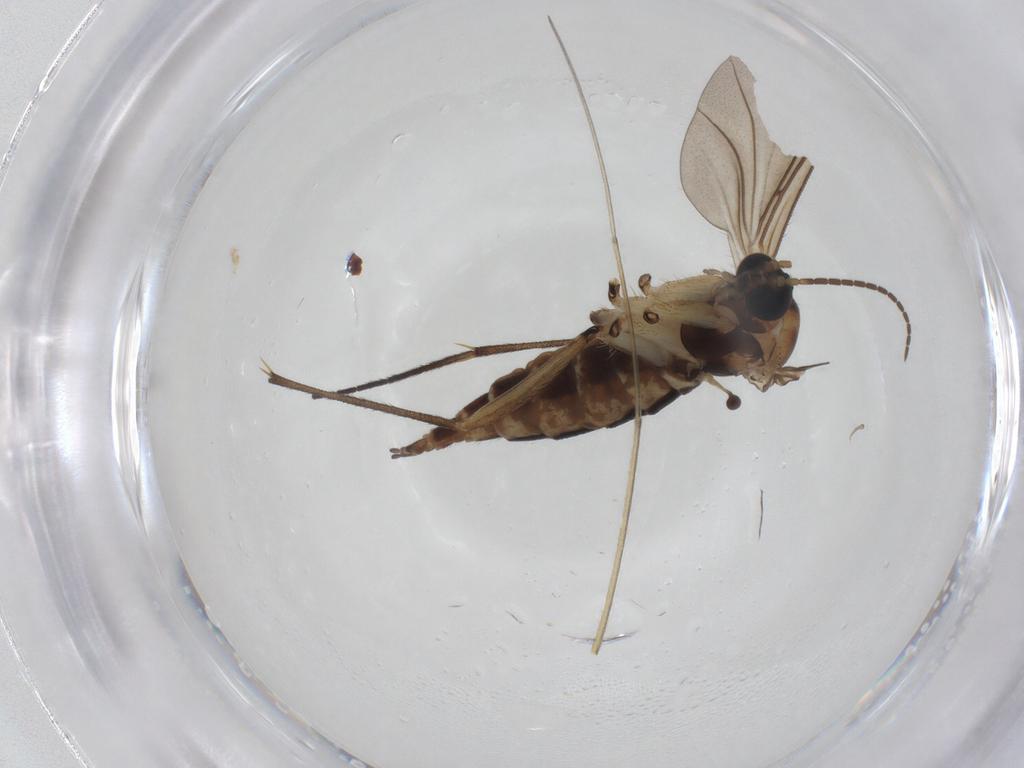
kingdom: Animalia
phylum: Arthropoda
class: Insecta
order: Diptera
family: Sciaridae
